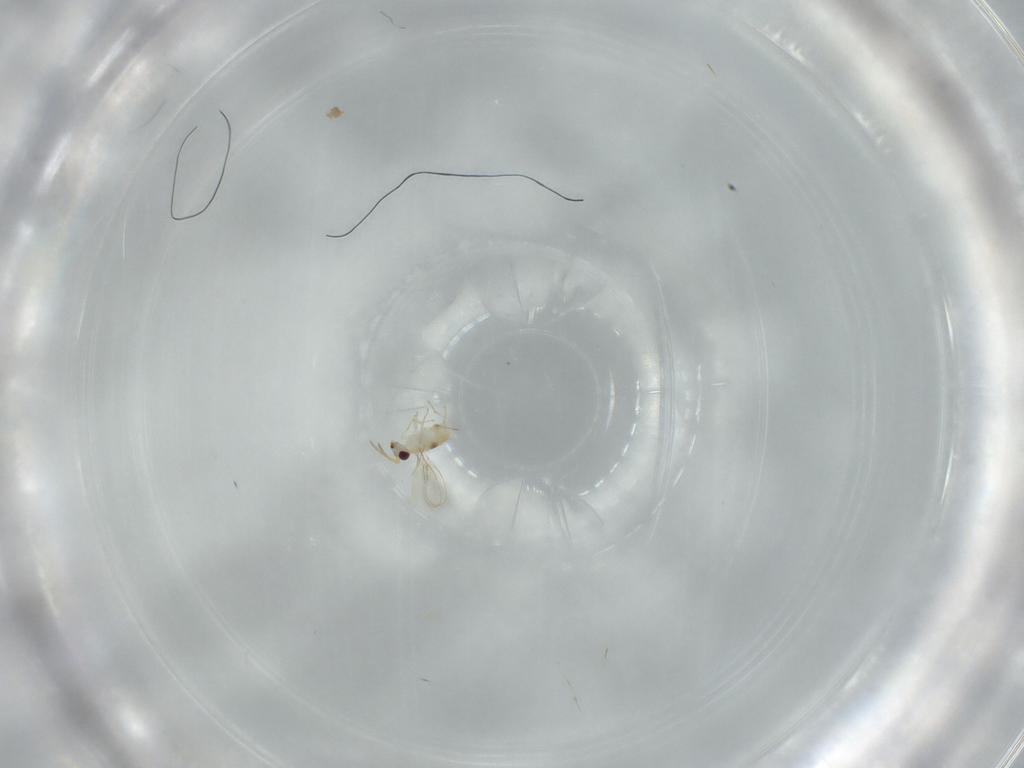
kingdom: Animalia
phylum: Arthropoda
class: Insecta
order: Hymenoptera
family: Aphelinidae
